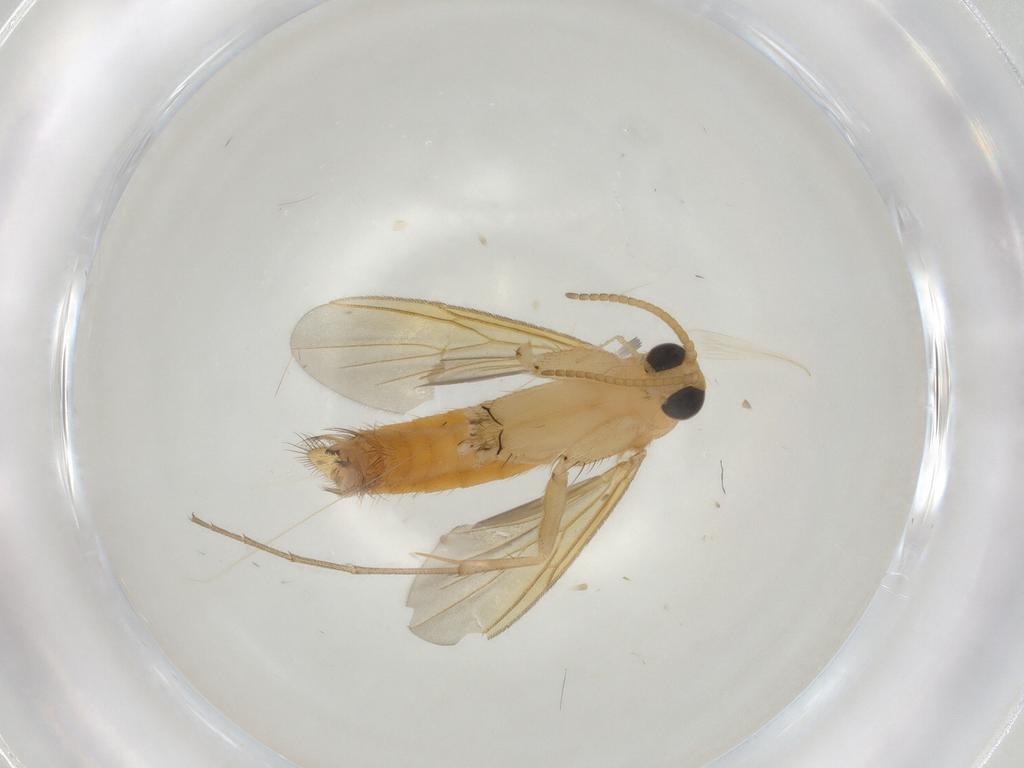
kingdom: Animalia
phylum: Arthropoda
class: Insecta
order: Diptera
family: Mycetophilidae
